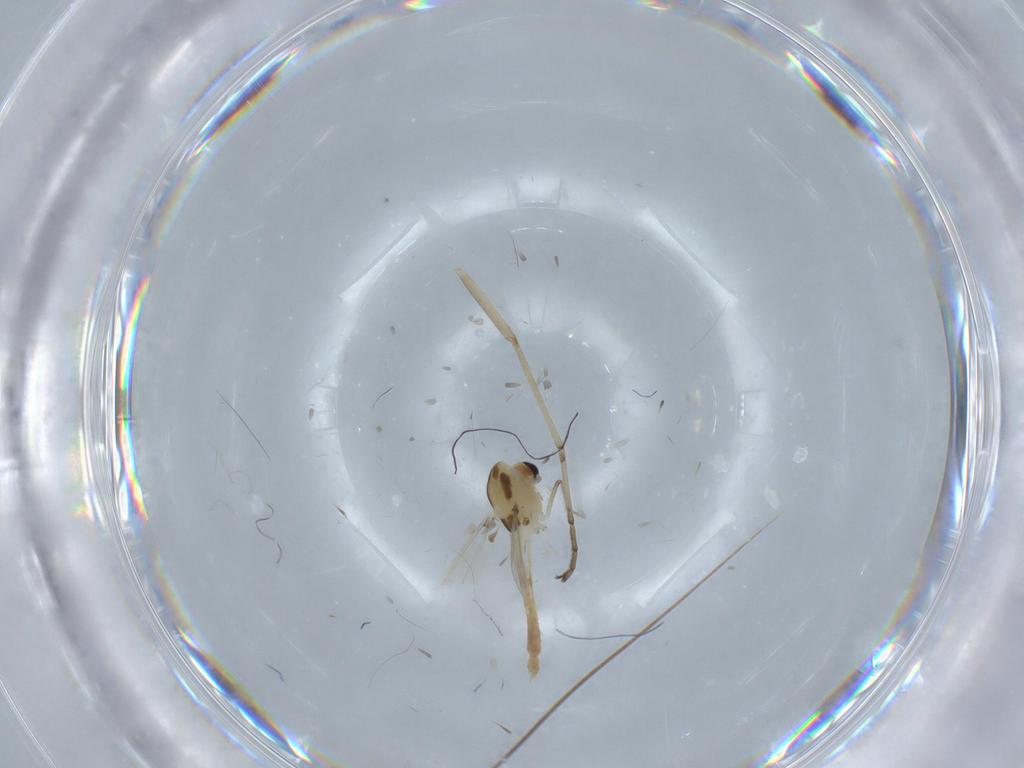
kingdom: Animalia
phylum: Arthropoda
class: Insecta
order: Diptera
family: Chironomidae
